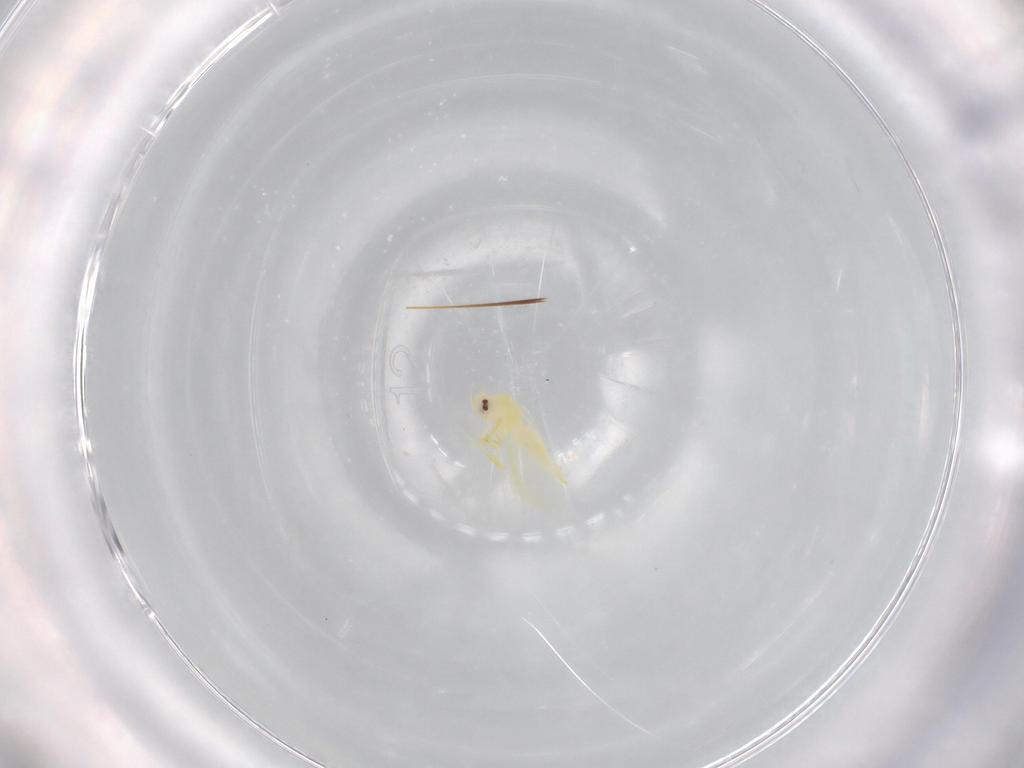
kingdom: Animalia
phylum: Arthropoda
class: Insecta
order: Hemiptera
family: Aleyrodidae
